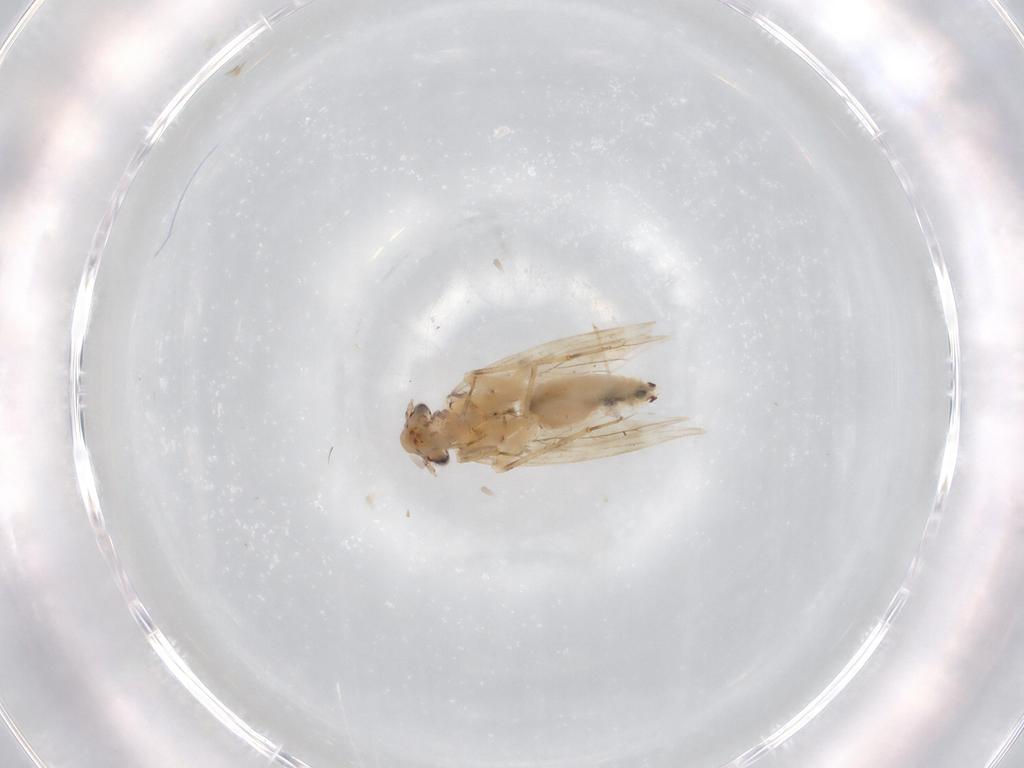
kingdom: Animalia
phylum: Arthropoda
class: Insecta
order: Psocodea
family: Lepidopsocidae
